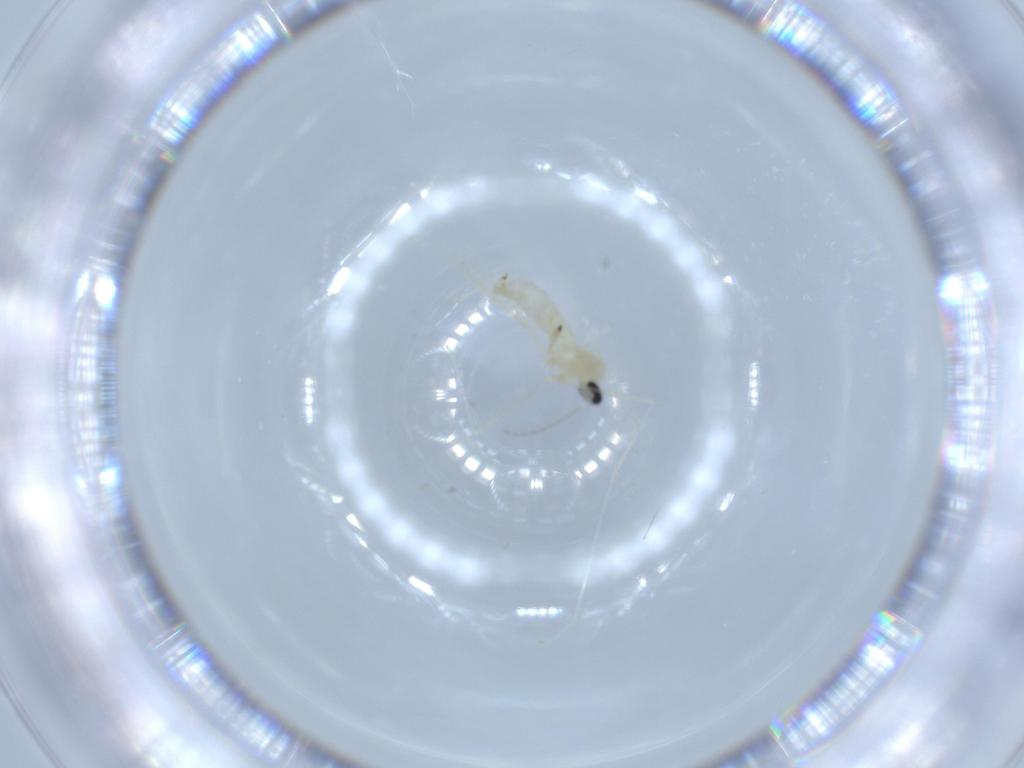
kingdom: Animalia
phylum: Arthropoda
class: Insecta
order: Diptera
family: Cecidomyiidae
